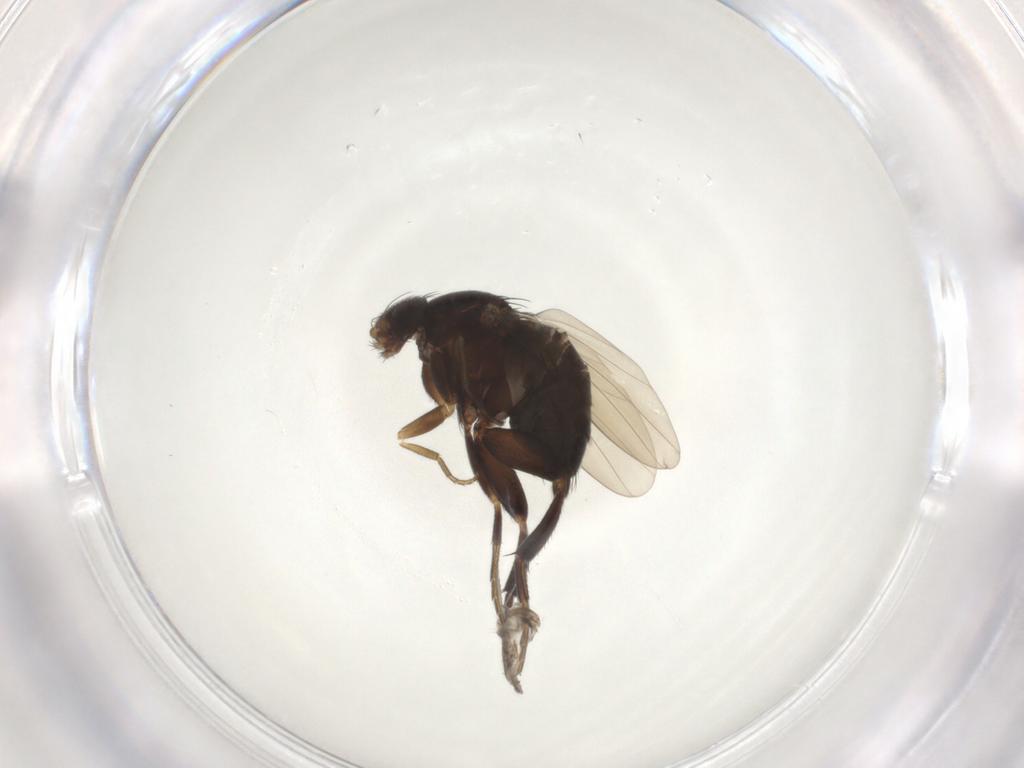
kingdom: Animalia
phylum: Arthropoda
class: Insecta
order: Diptera
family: Phoridae
